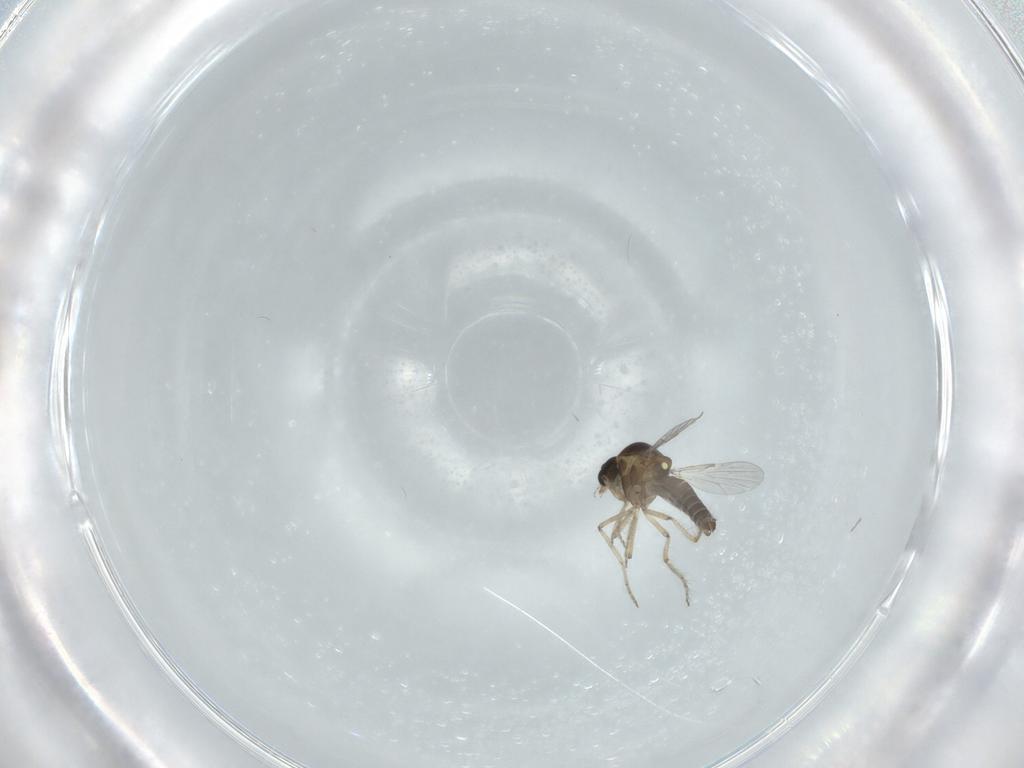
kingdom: Animalia
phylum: Arthropoda
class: Insecta
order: Diptera
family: Ceratopogonidae
